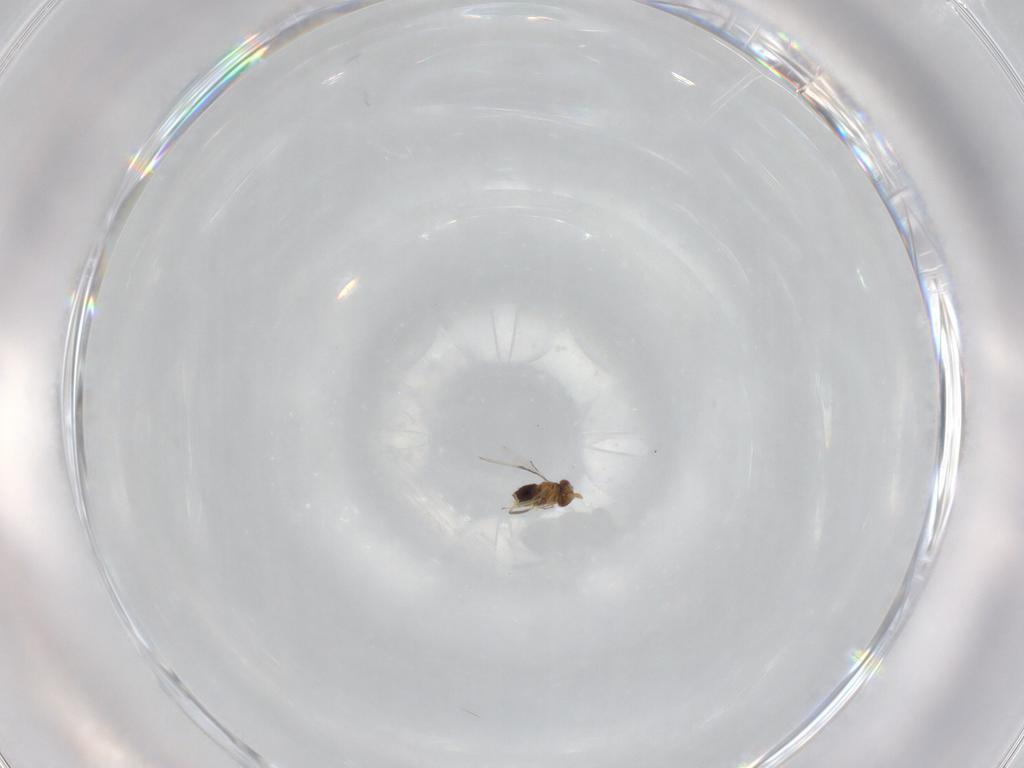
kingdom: Animalia
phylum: Arthropoda
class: Insecta
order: Hymenoptera
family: Trichogrammatidae
